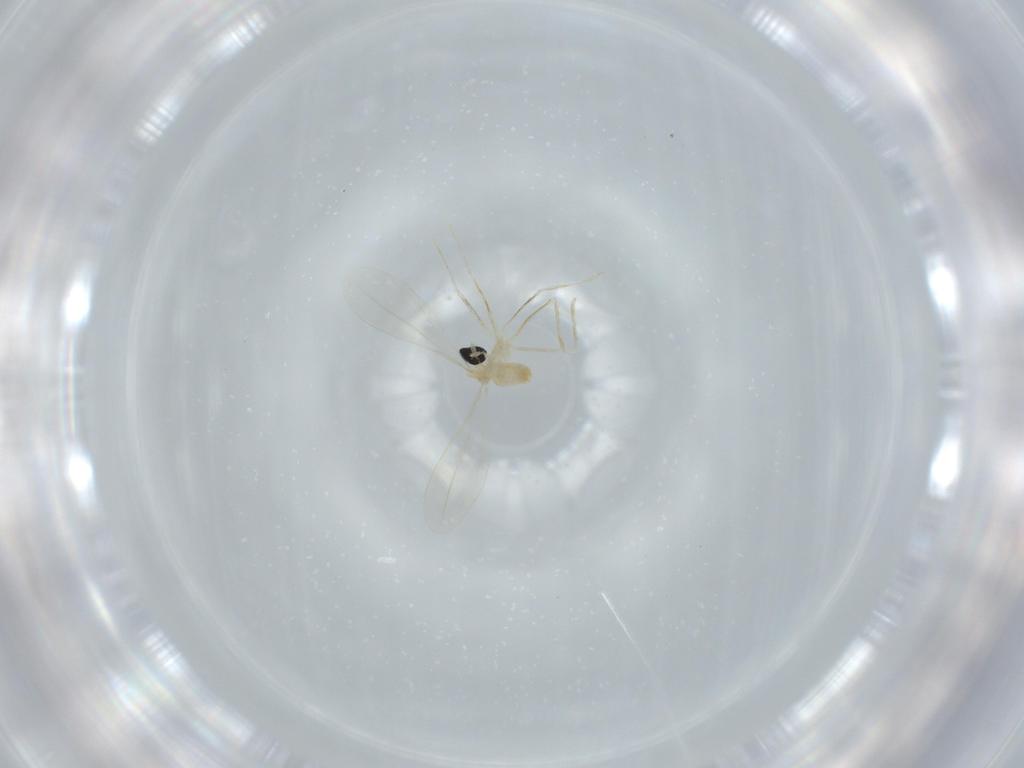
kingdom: Animalia
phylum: Arthropoda
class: Insecta
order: Diptera
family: Cecidomyiidae
